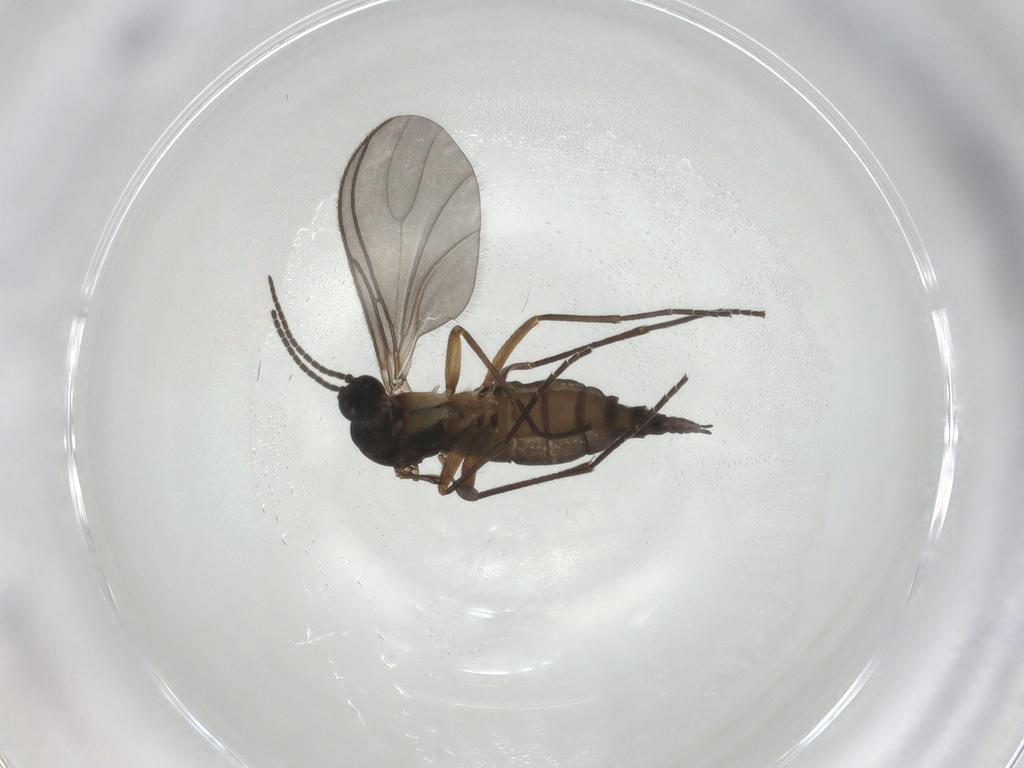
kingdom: Animalia
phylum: Arthropoda
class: Insecta
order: Diptera
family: Sciaridae
